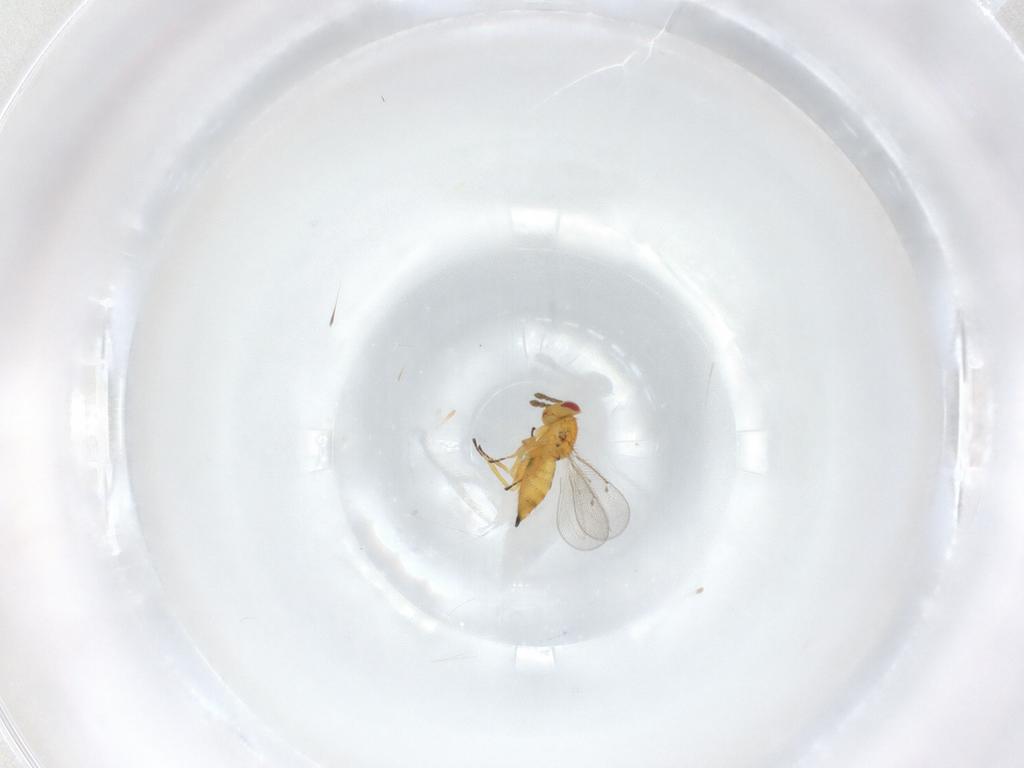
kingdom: Animalia
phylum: Arthropoda
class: Insecta
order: Hymenoptera
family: Eulophidae
